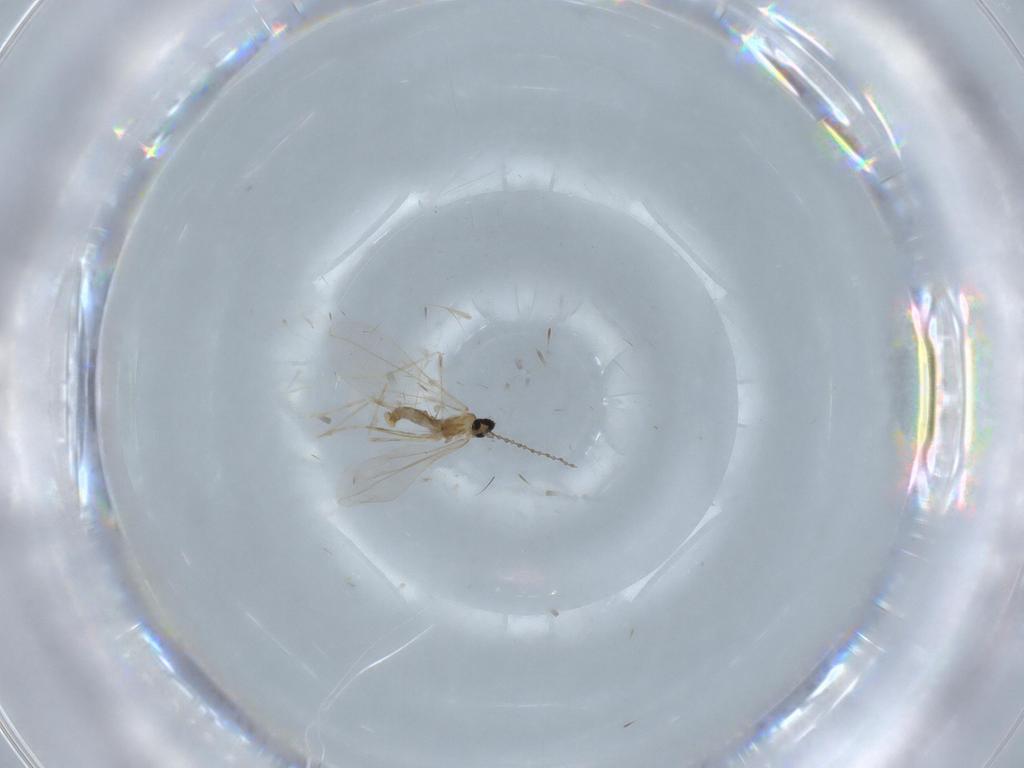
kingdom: Animalia
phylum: Arthropoda
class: Insecta
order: Diptera
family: Cecidomyiidae
